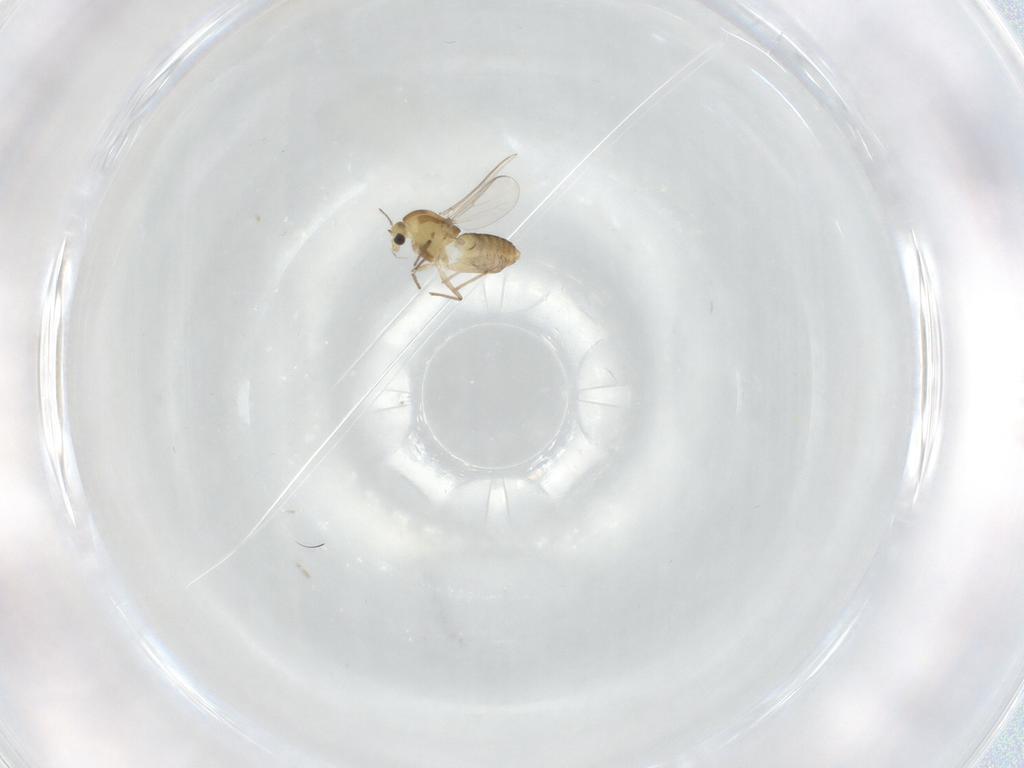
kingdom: Animalia
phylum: Arthropoda
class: Insecta
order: Diptera
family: Chironomidae
